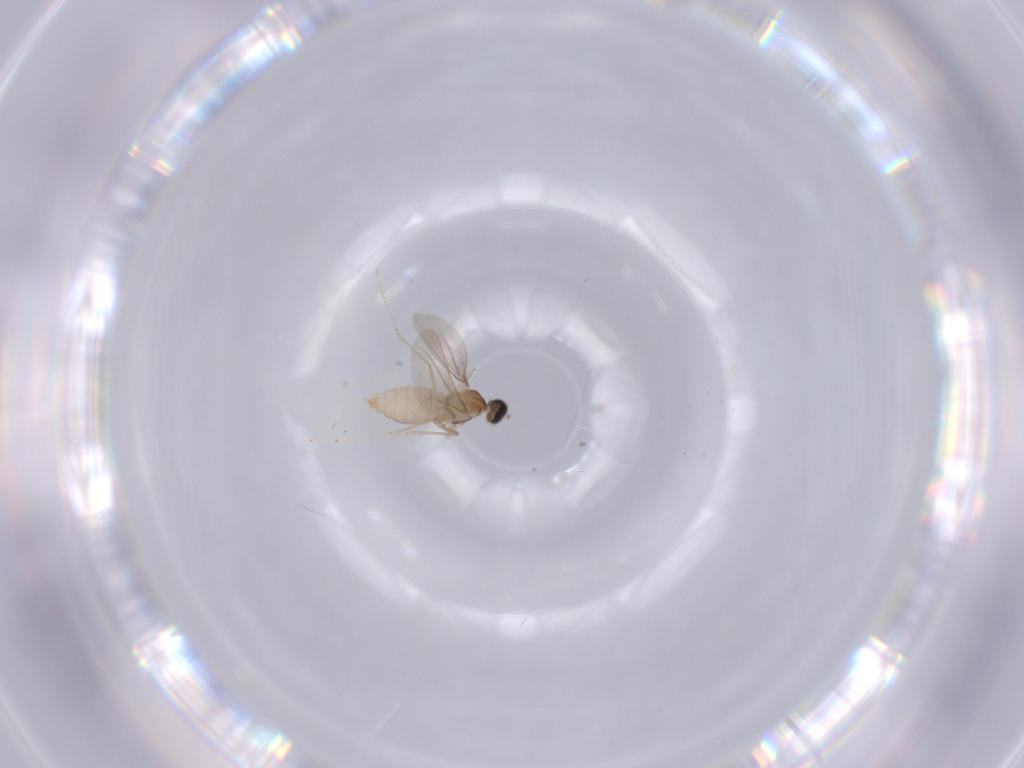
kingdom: Animalia
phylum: Arthropoda
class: Insecta
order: Diptera
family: Cecidomyiidae
